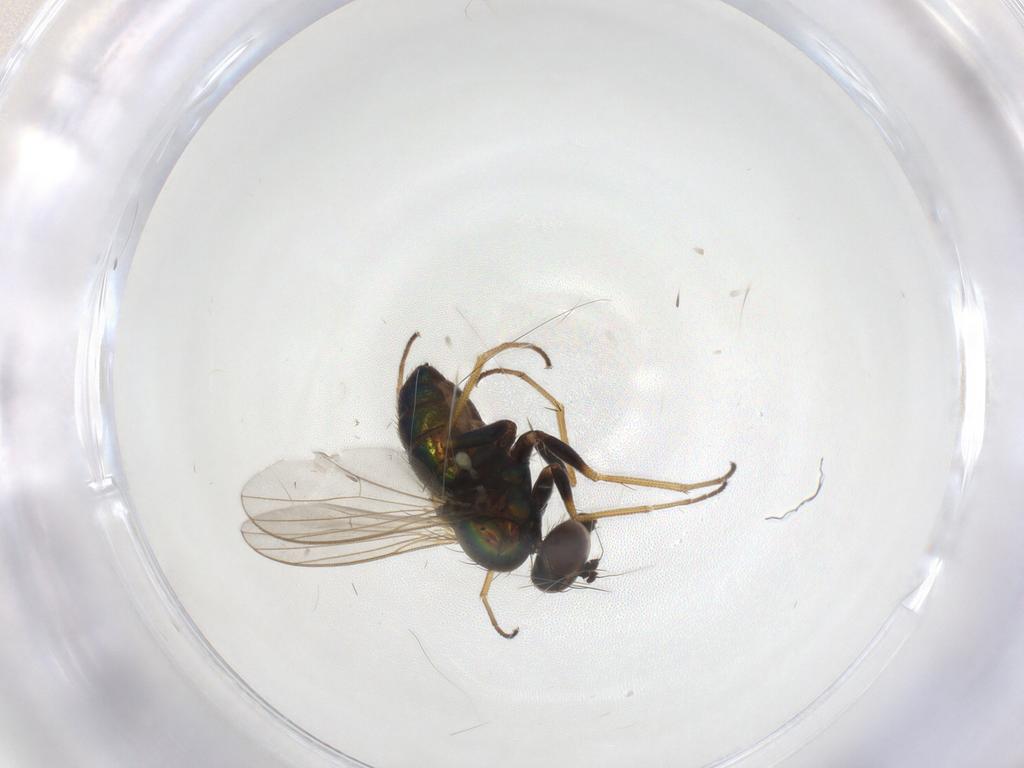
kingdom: Animalia
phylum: Arthropoda
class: Insecta
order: Diptera
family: Dolichopodidae
